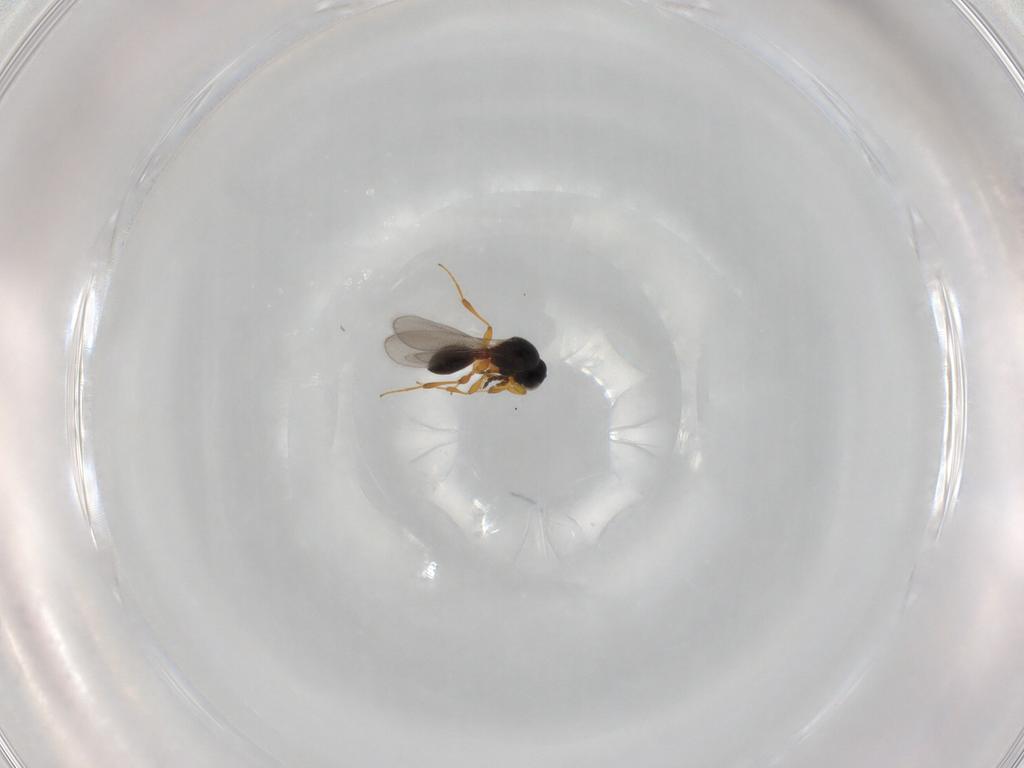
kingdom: Animalia
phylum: Arthropoda
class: Insecta
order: Hymenoptera
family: Platygastridae
